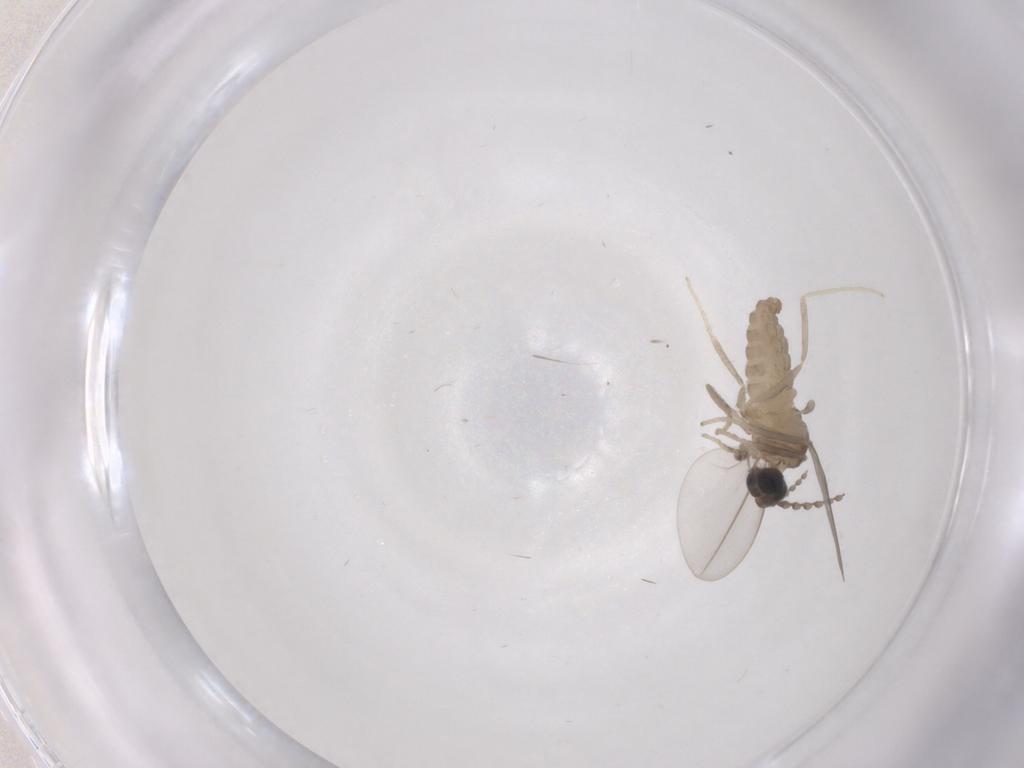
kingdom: Animalia
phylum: Arthropoda
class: Insecta
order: Diptera
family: Cecidomyiidae
